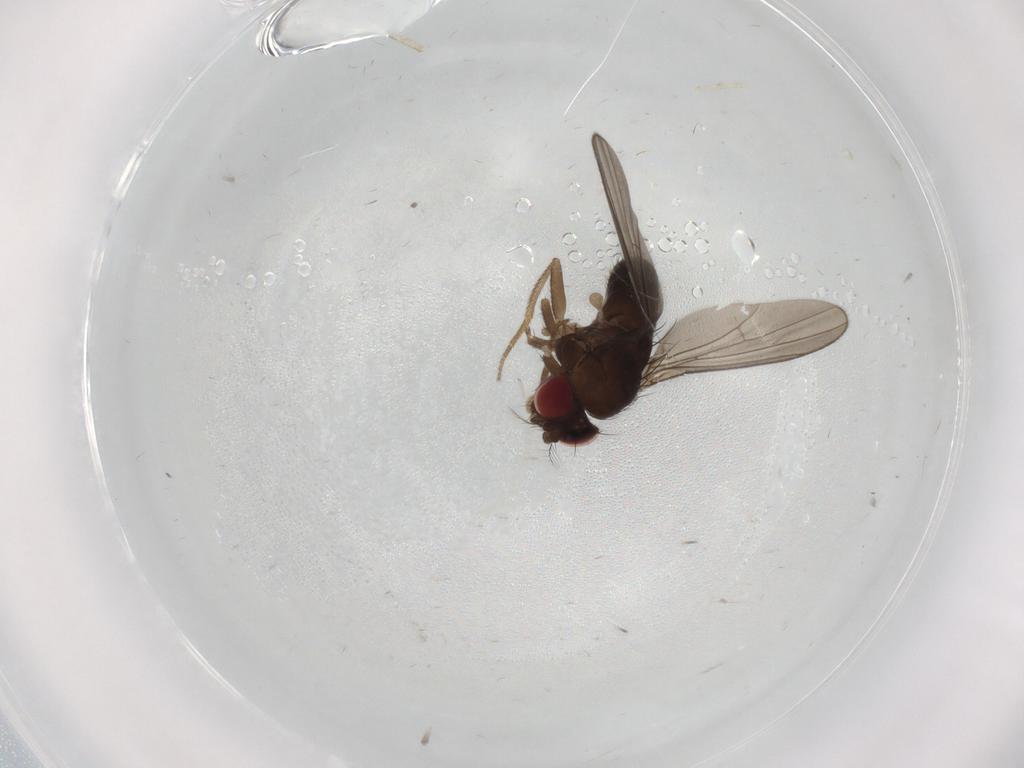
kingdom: Animalia
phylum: Arthropoda
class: Insecta
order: Diptera
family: Drosophilidae
